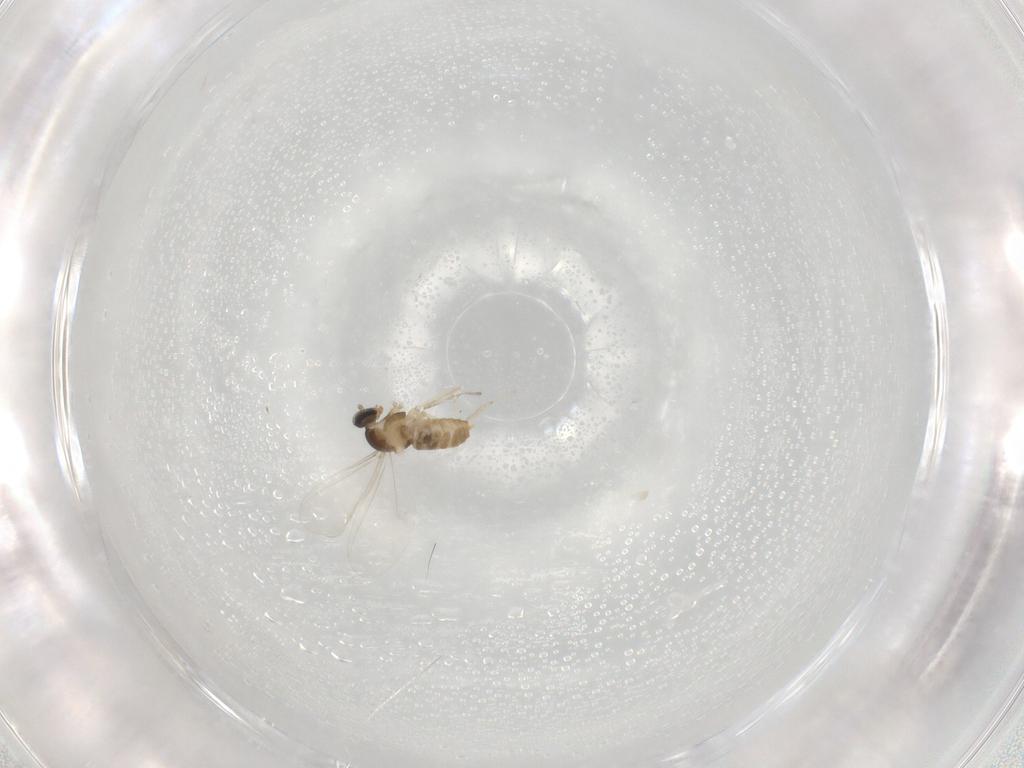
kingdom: Animalia
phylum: Arthropoda
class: Insecta
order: Diptera
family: Cecidomyiidae
